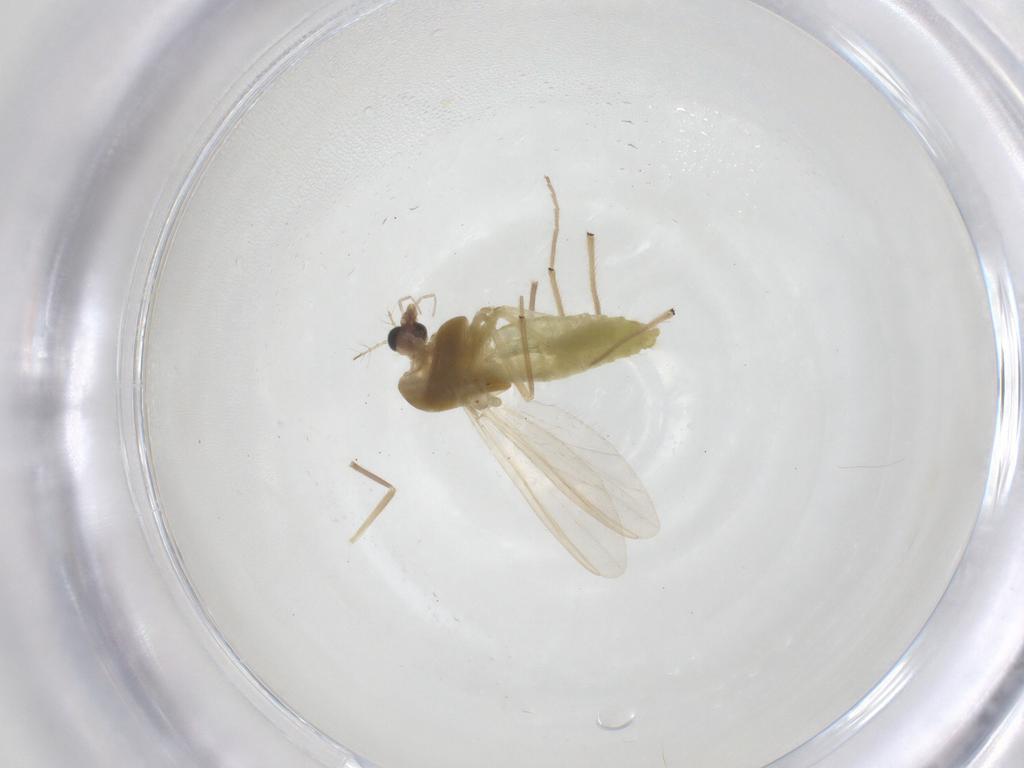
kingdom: Animalia
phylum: Arthropoda
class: Insecta
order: Diptera
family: Chironomidae
